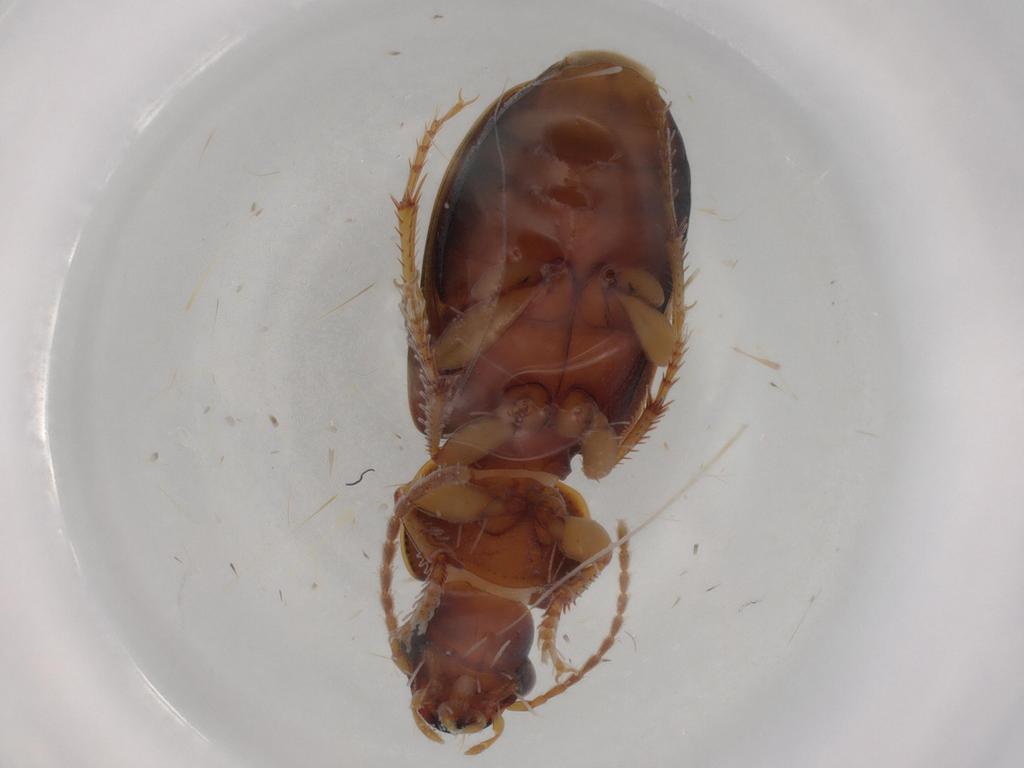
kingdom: Animalia
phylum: Arthropoda
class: Insecta
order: Coleoptera
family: Carabidae
